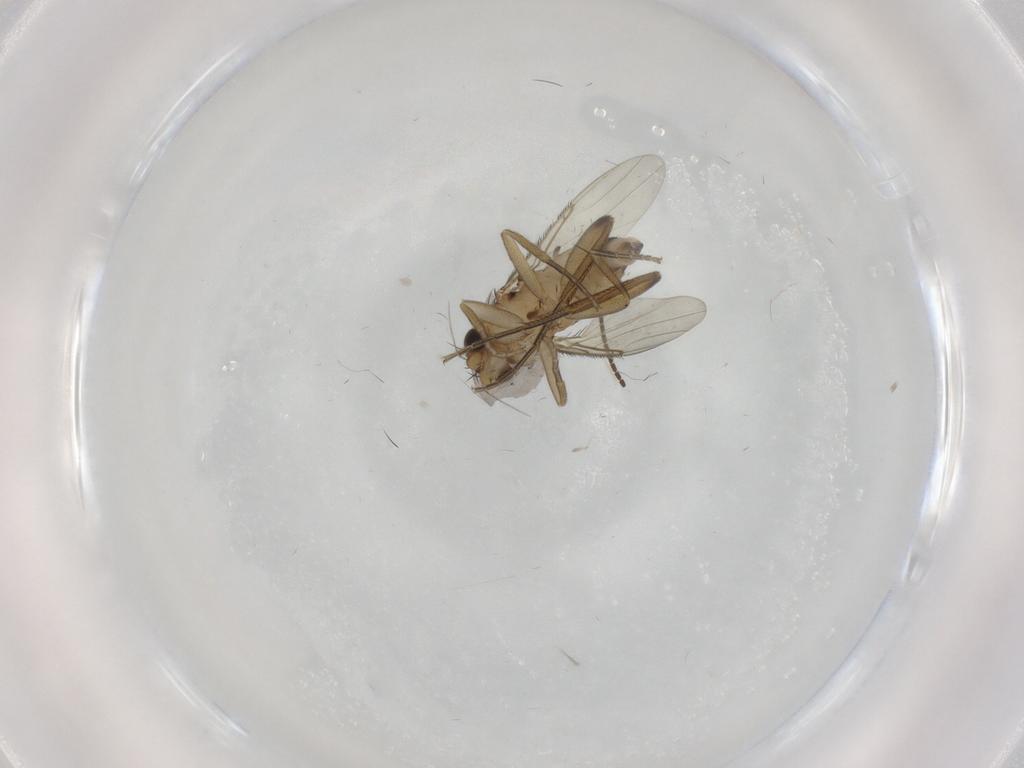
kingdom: Animalia
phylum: Arthropoda
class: Insecta
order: Diptera
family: Phoridae
